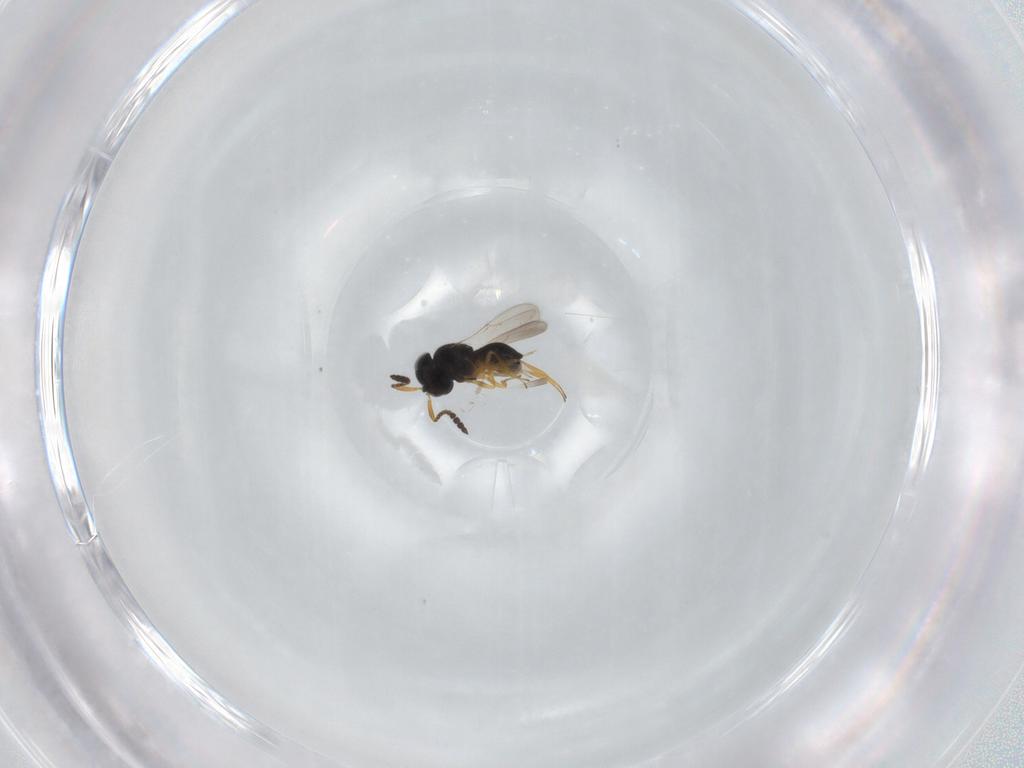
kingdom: Animalia
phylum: Arthropoda
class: Insecta
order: Hymenoptera
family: Scelionidae
